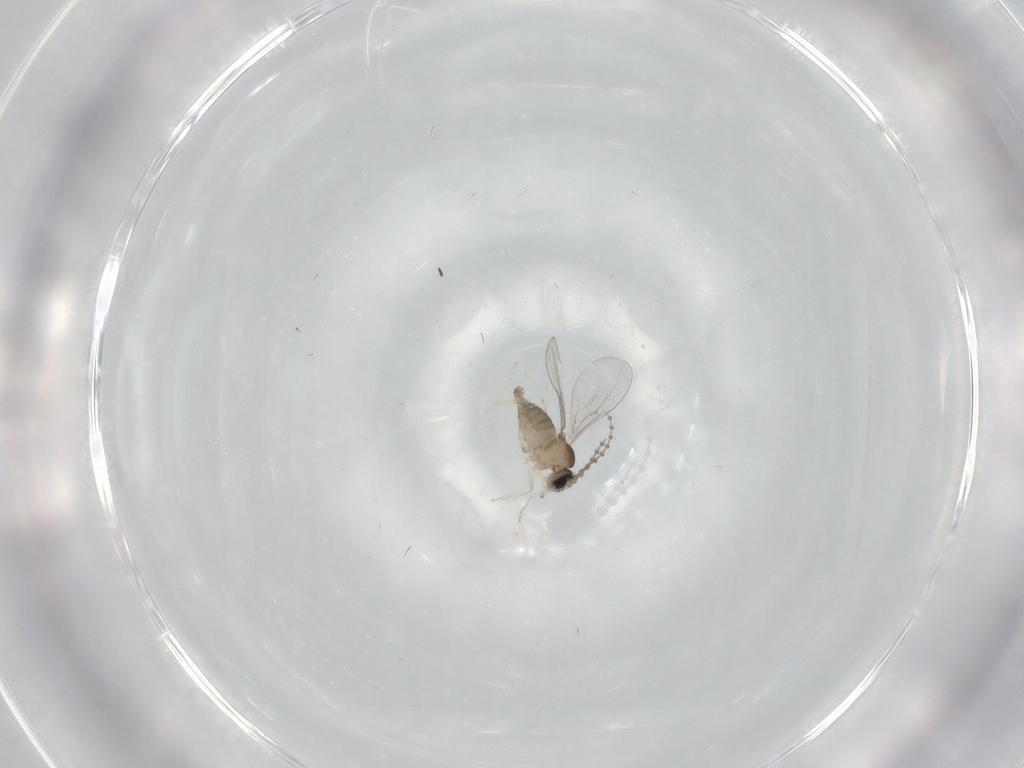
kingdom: Animalia
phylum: Arthropoda
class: Insecta
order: Diptera
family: Cecidomyiidae
